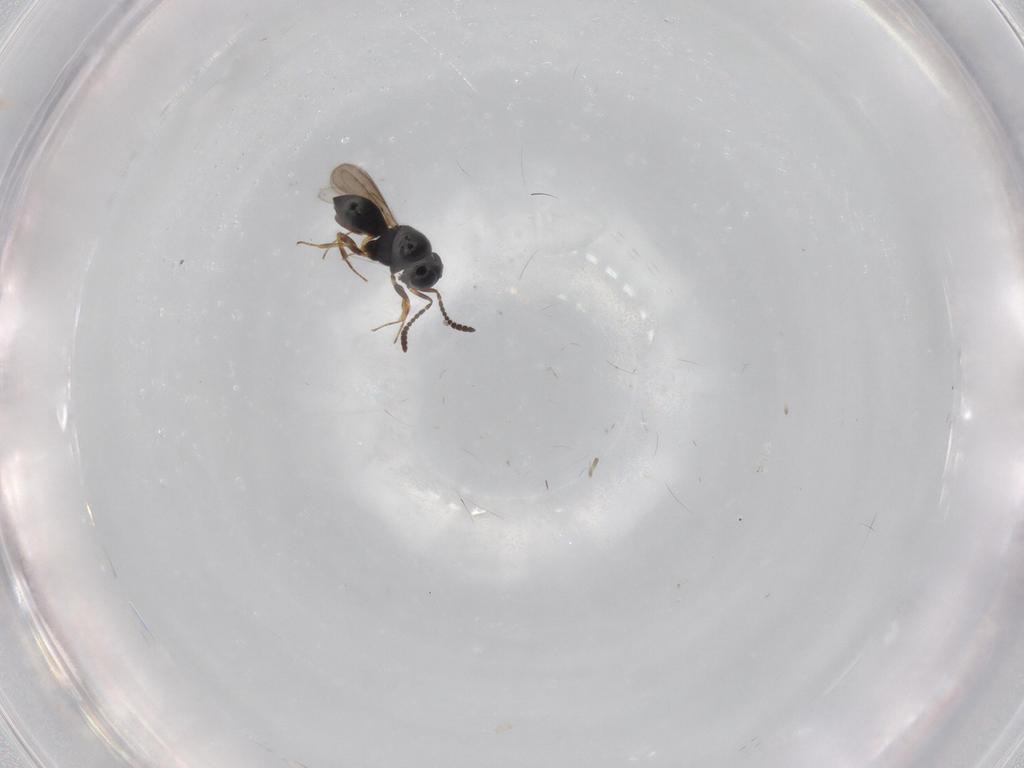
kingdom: Animalia
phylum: Arthropoda
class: Insecta
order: Hymenoptera
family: Scelionidae
